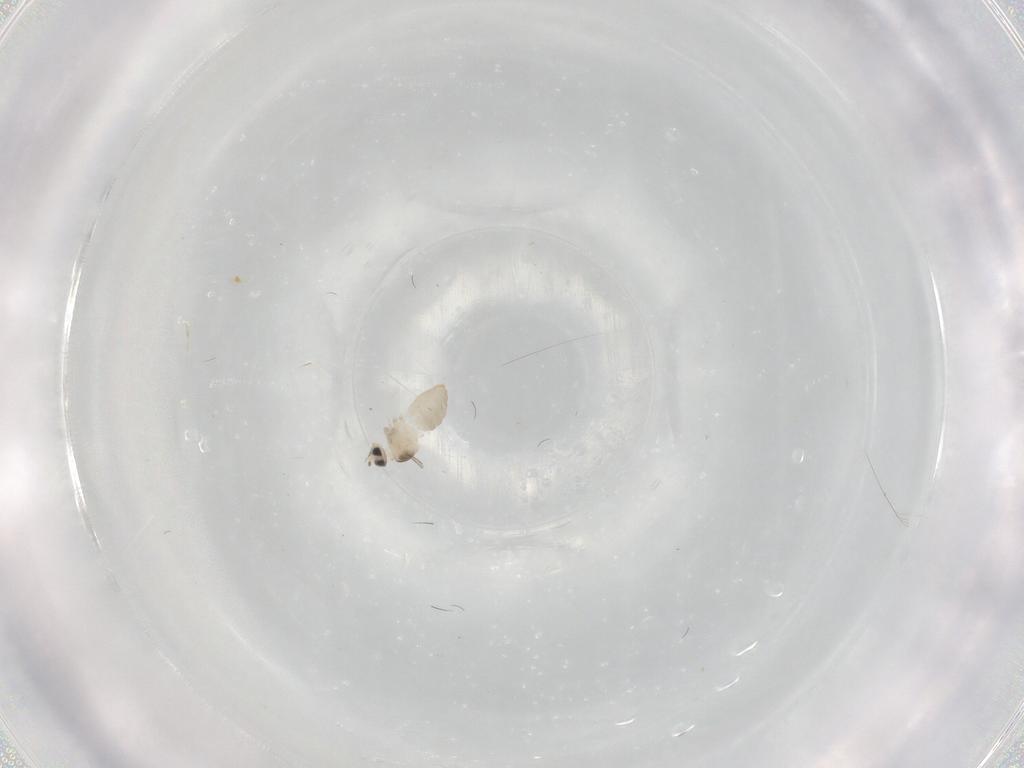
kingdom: Animalia
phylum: Arthropoda
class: Insecta
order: Diptera
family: Cecidomyiidae
